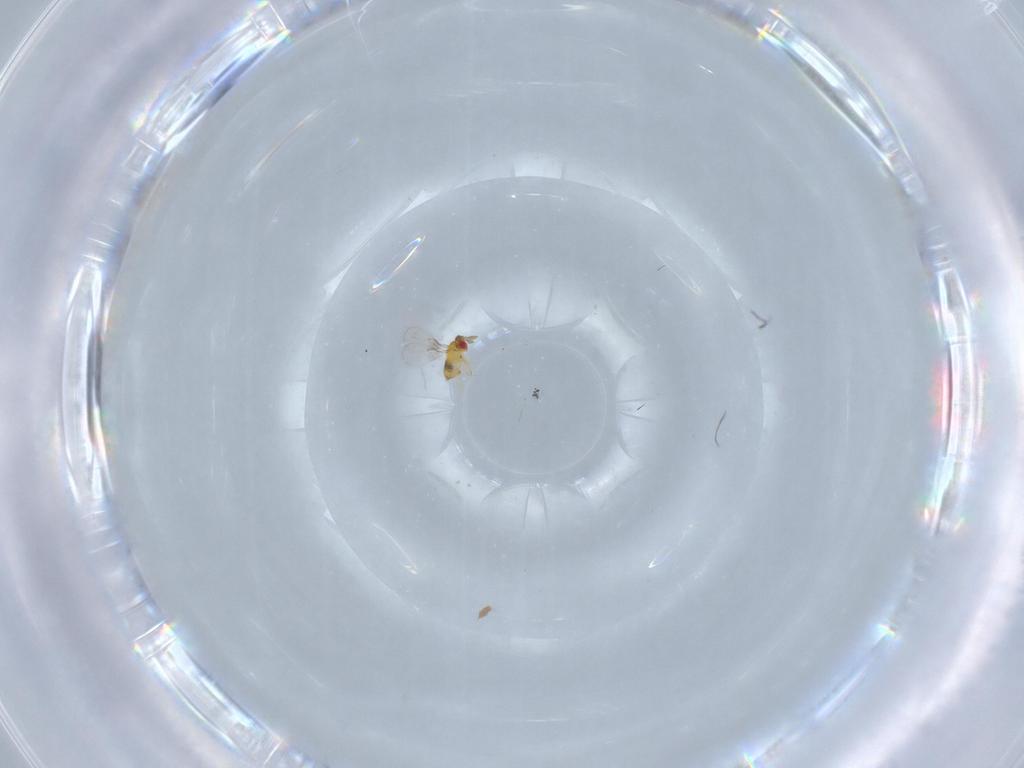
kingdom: Animalia
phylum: Arthropoda
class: Insecta
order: Hymenoptera
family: Trichogrammatidae
